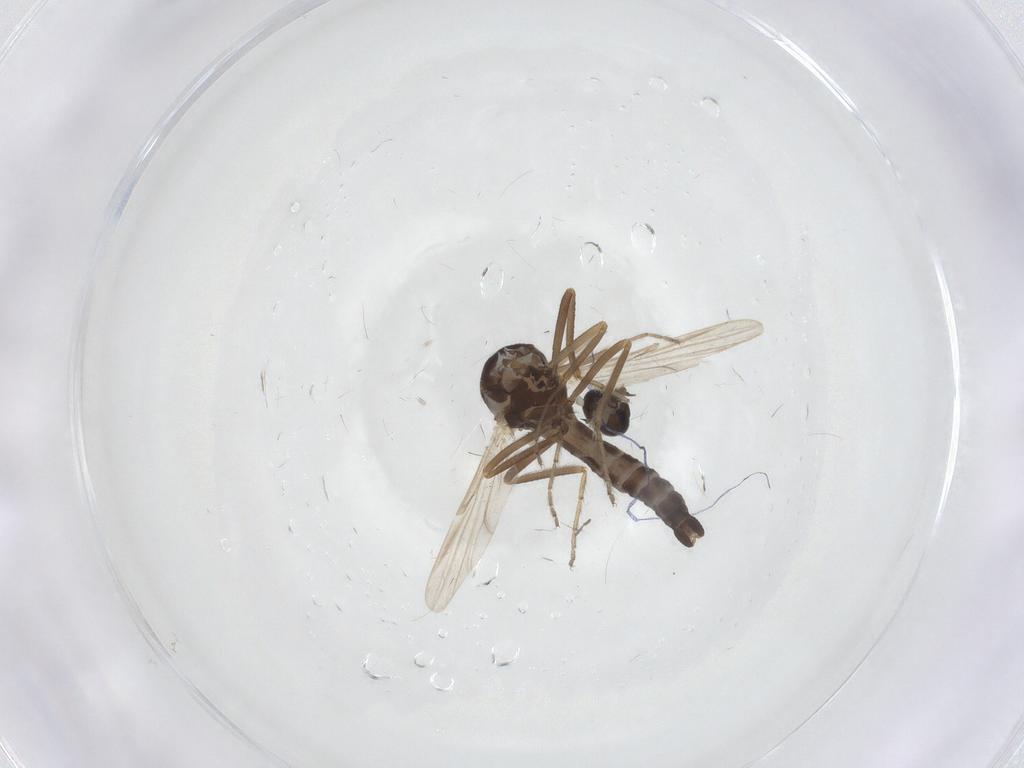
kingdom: Animalia
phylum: Arthropoda
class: Insecta
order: Diptera
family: Ceratopogonidae
